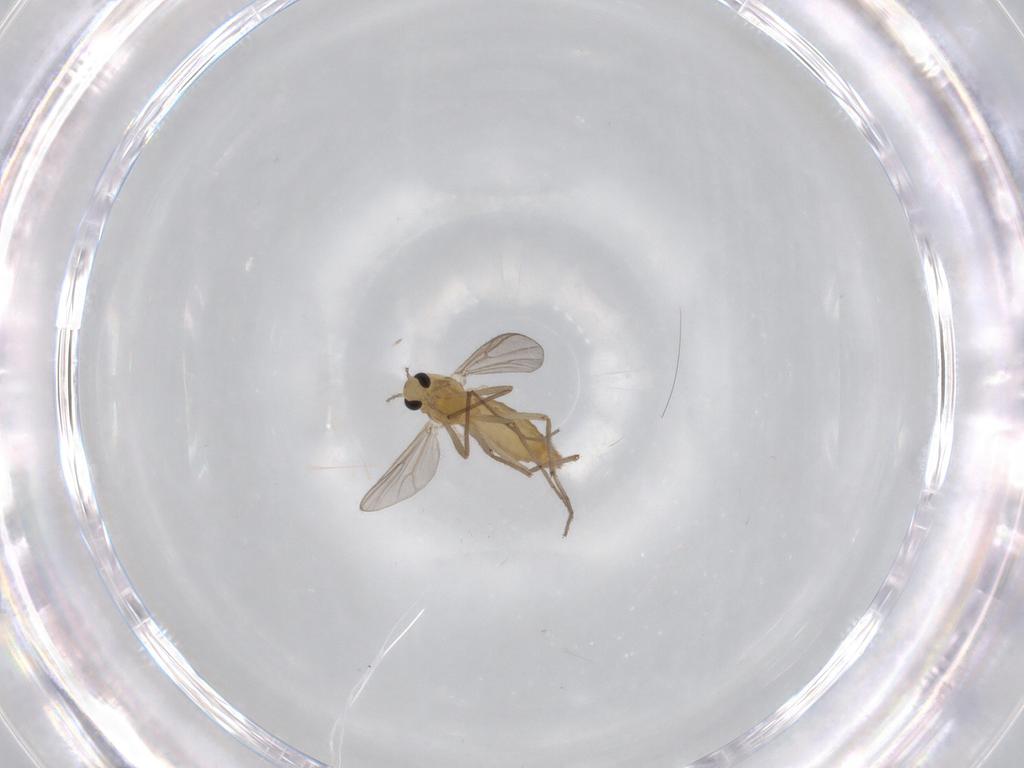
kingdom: Animalia
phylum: Arthropoda
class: Insecta
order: Diptera
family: Chironomidae
